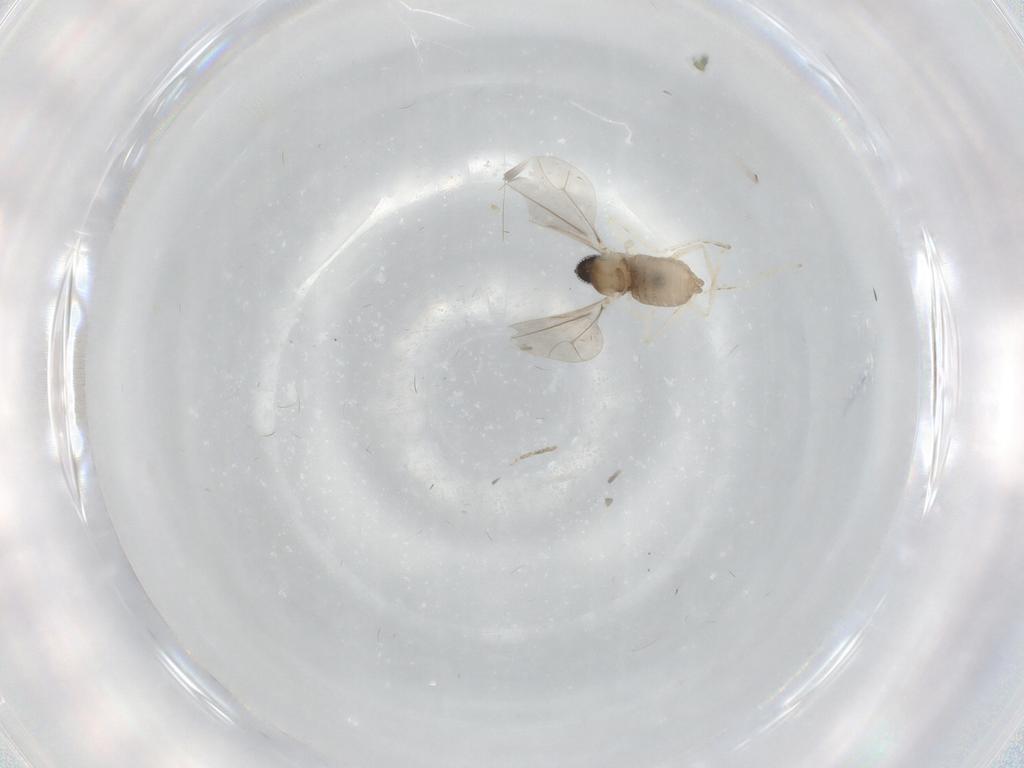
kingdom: Animalia
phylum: Arthropoda
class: Insecta
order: Diptera
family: Cecidomyiidae
